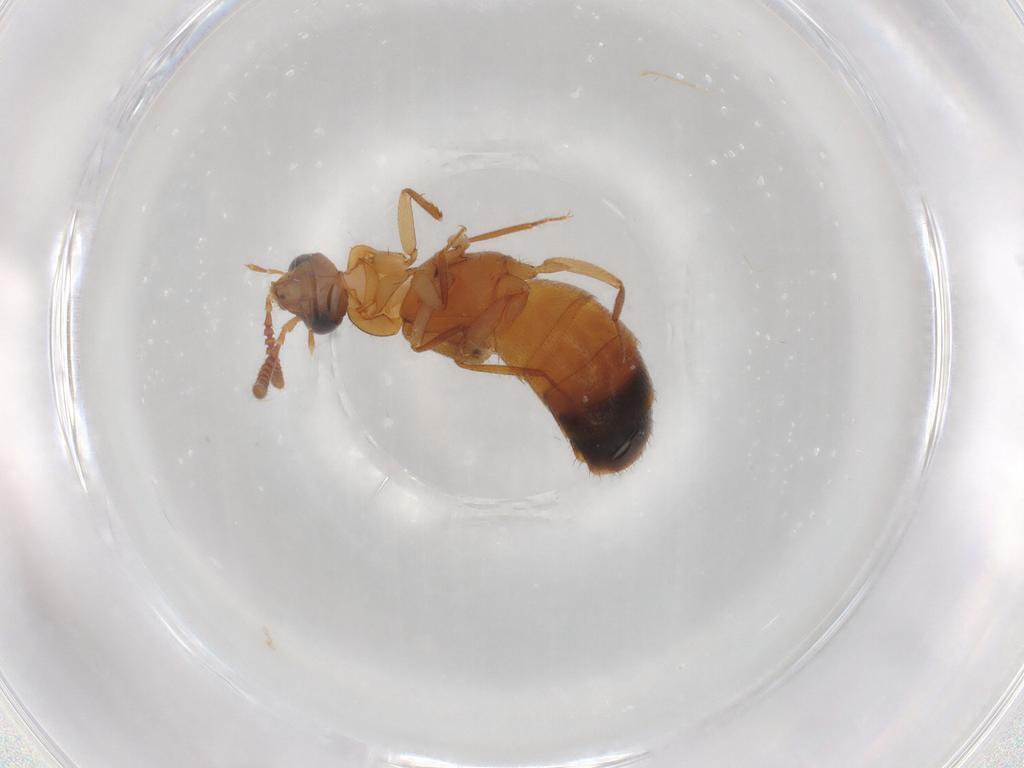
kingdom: Animalia
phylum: Arthropoda
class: Insecta
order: Coleoptera
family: Staphylinidae
